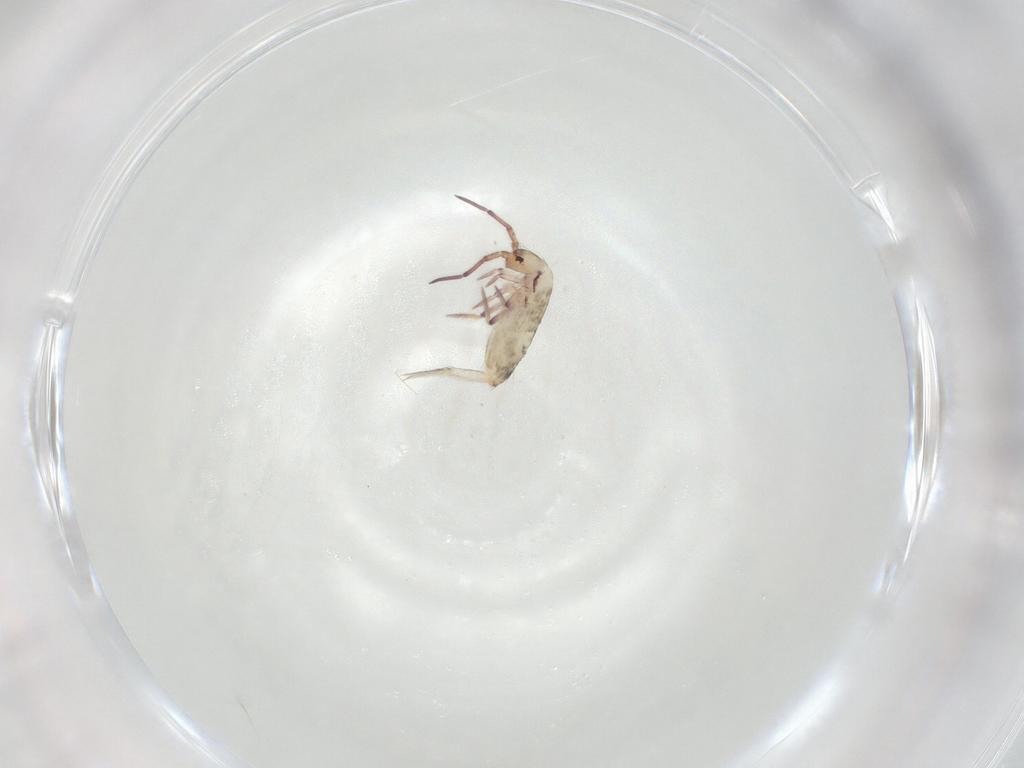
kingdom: Animalia
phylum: Arthropoda
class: Collembola
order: Entomobryomorpha
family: Entomobryidae
